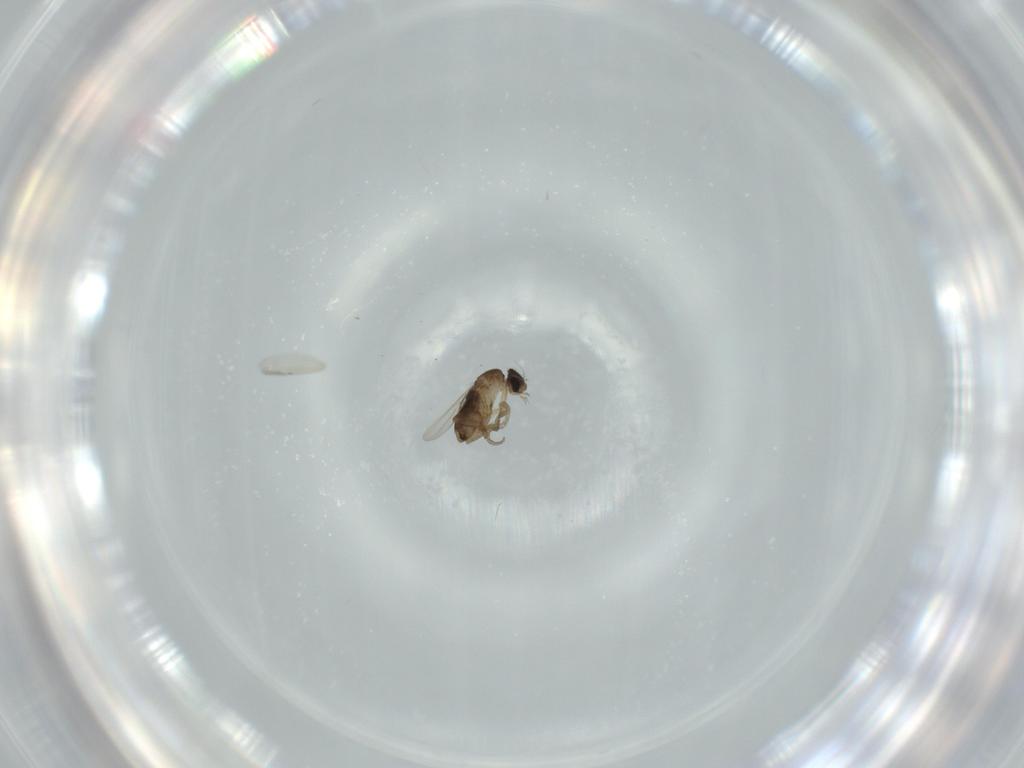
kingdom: Animalia
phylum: Arthropoda
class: Insecta
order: Diptera
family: Phoridae
